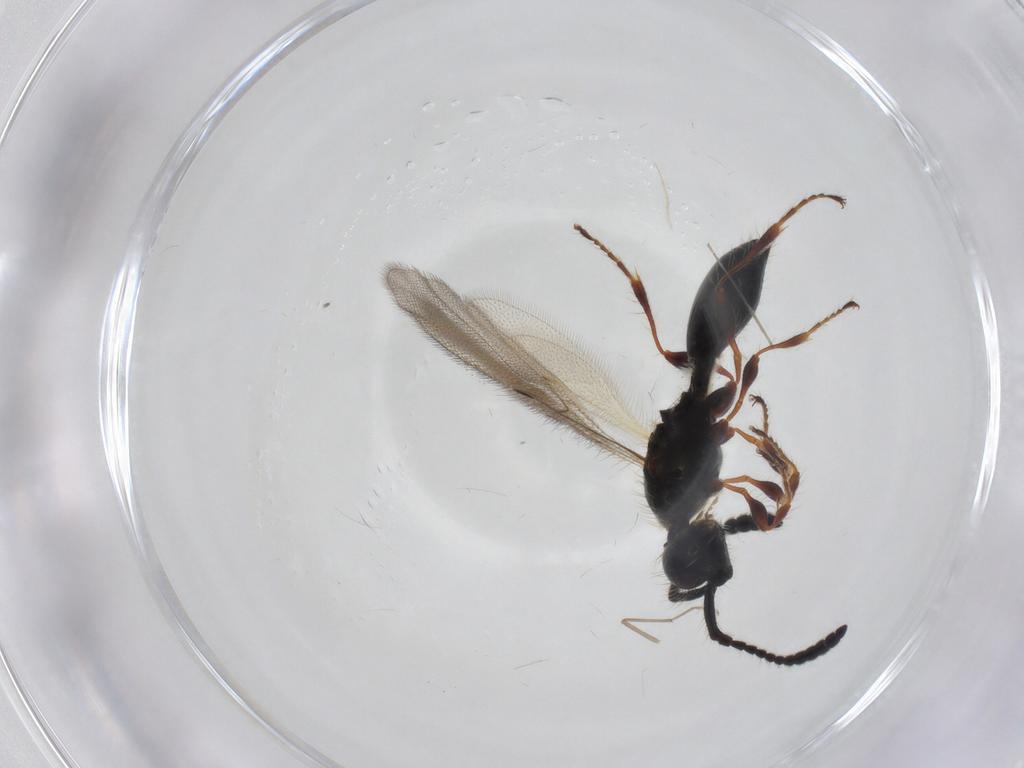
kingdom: Animalia
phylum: Arthropoda
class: Insecta
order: Hymenoptera
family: Diapriidae
